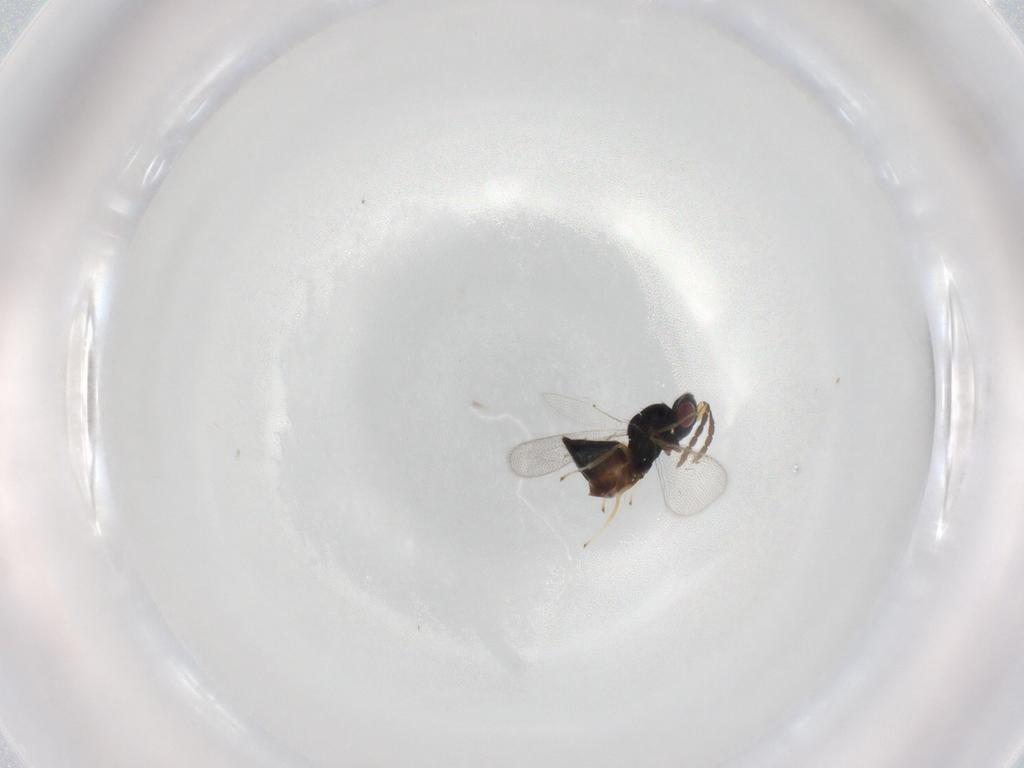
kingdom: Animalia
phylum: Arthropoda
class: Insecta
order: Hymenoptera
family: Eulophidae
